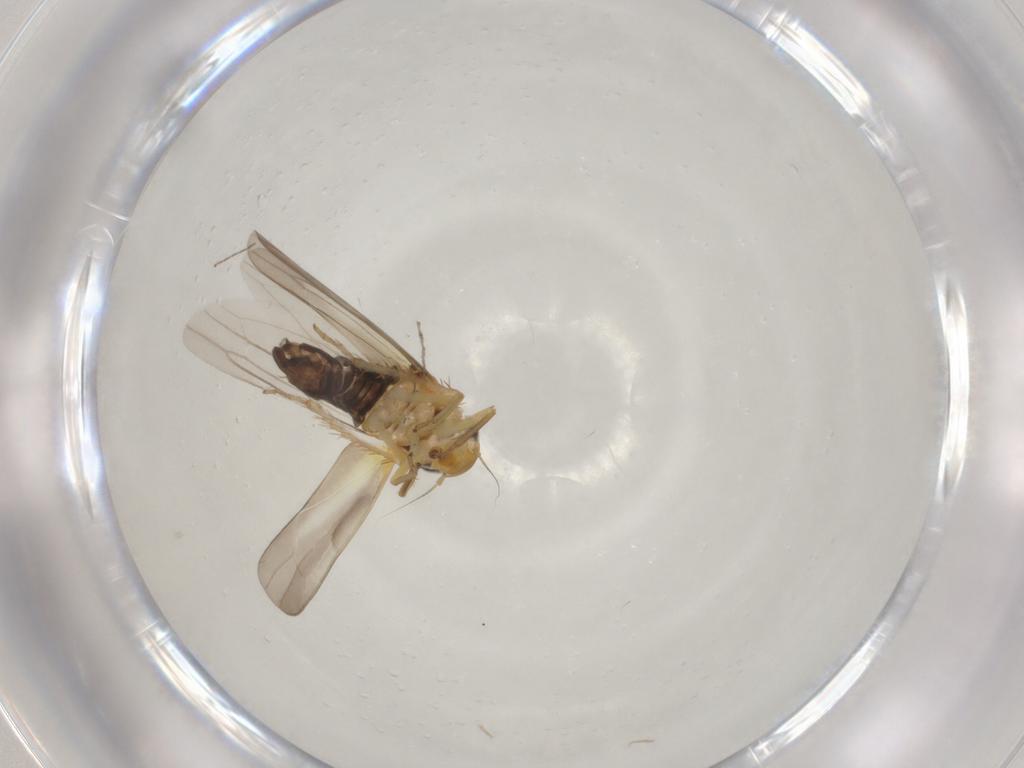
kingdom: Animalia
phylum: Arthropoda
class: Insecta
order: Hemiptera
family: Cicadellidae
